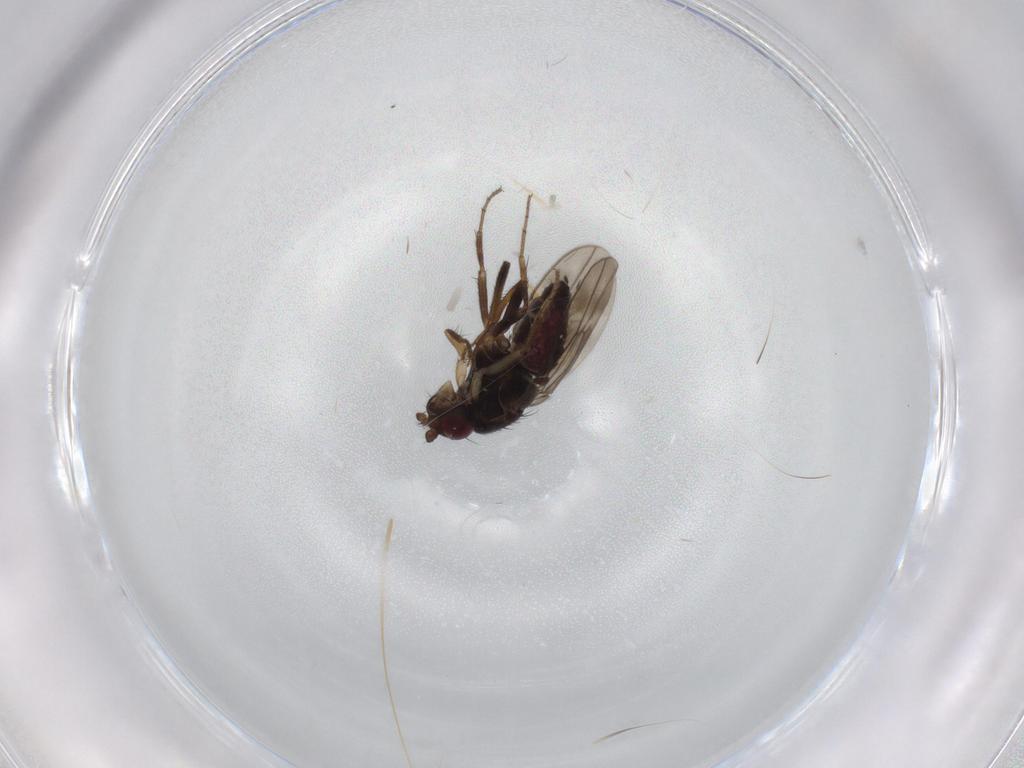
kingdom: Animalia
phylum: Arthropoda
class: Insecta
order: Diptera
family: Sphaeroceridae
